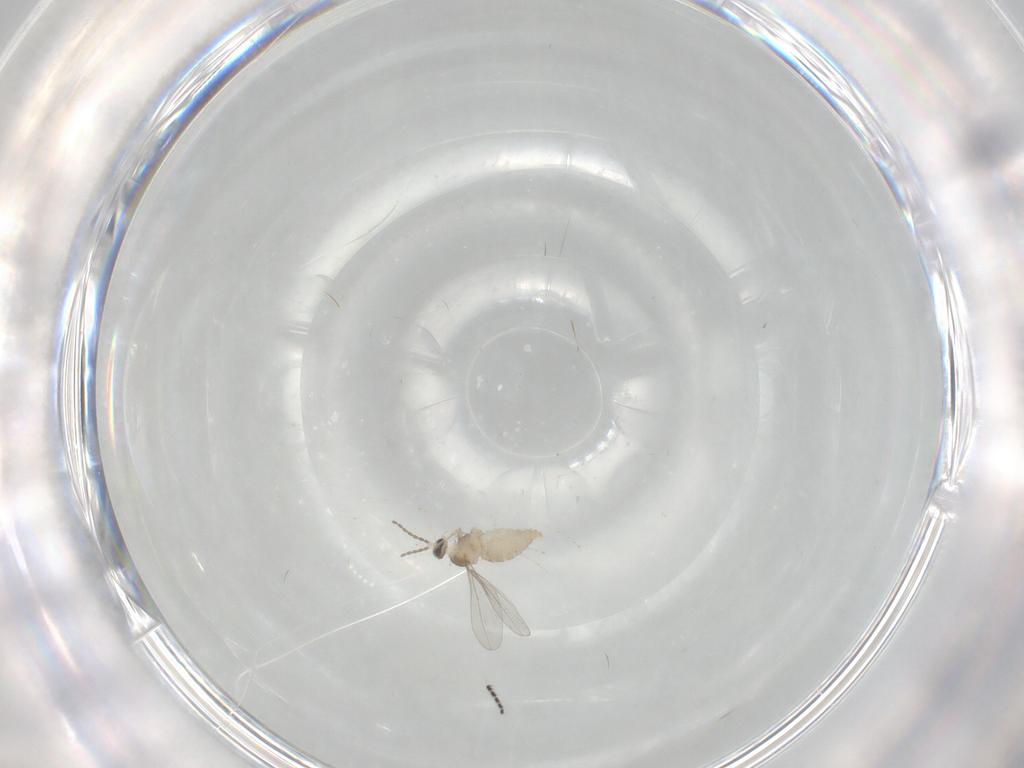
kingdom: Animalia
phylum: Arthropoda
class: Insecta
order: Diptera
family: Cecidomyiidae
